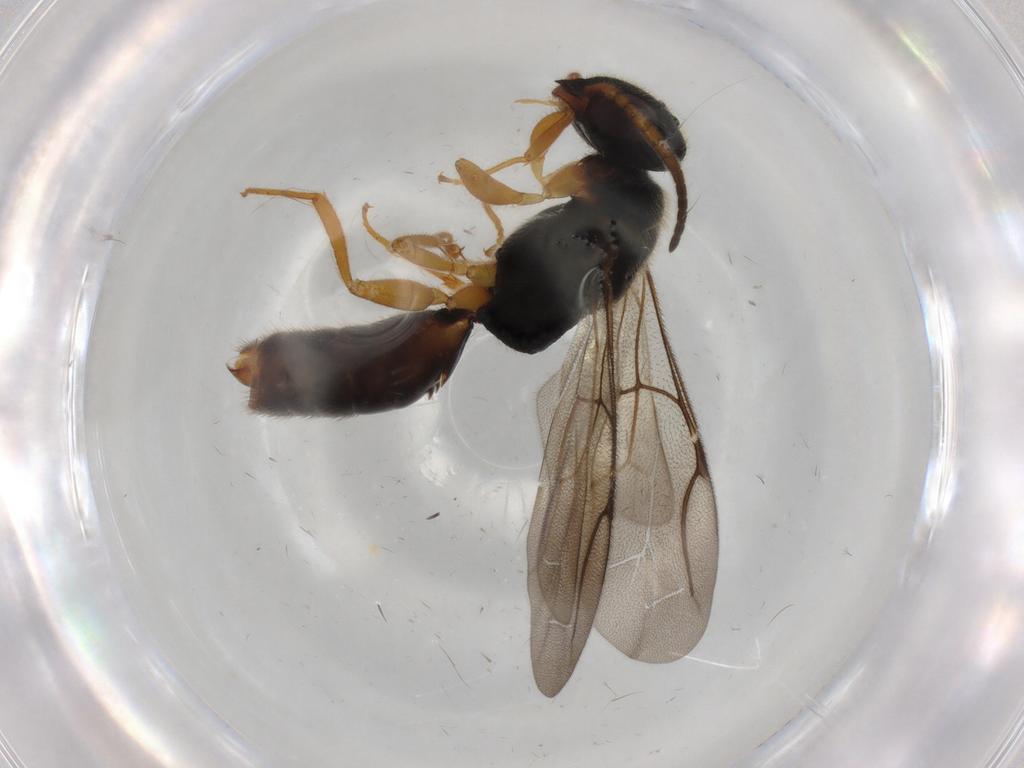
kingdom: Animalia
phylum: Arthropoda
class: Insecta
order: Hymenoptera
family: Bethylidae
